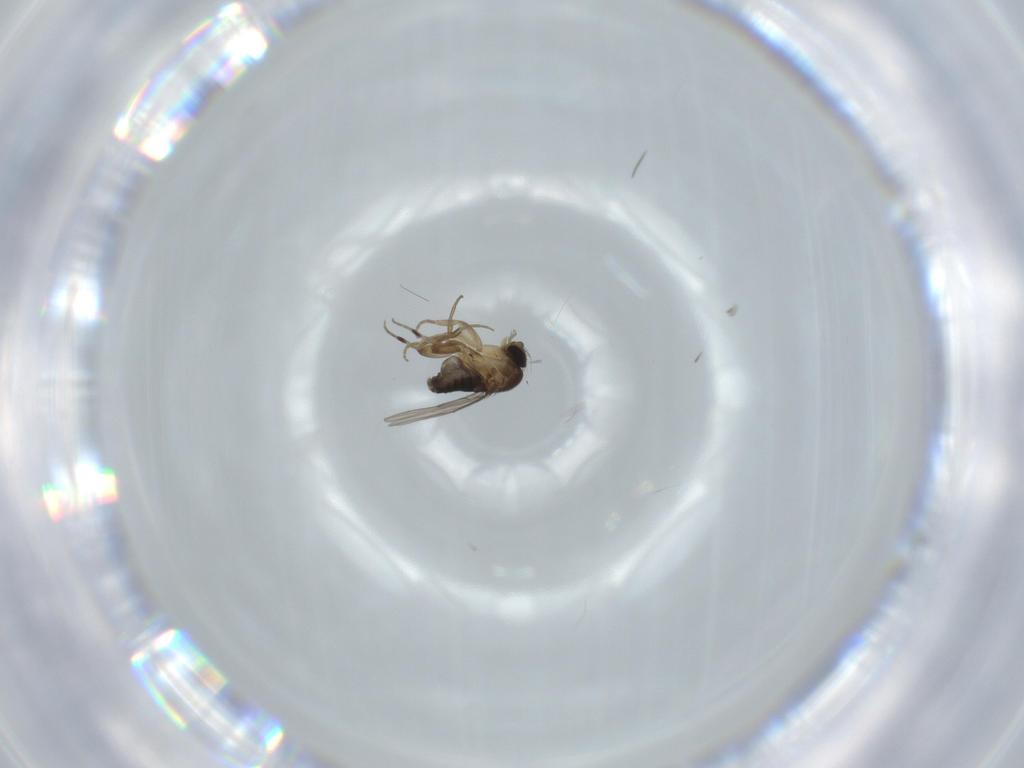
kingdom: Animalia
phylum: Arthropoda
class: Insecta
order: Diptera
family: Phoridae
